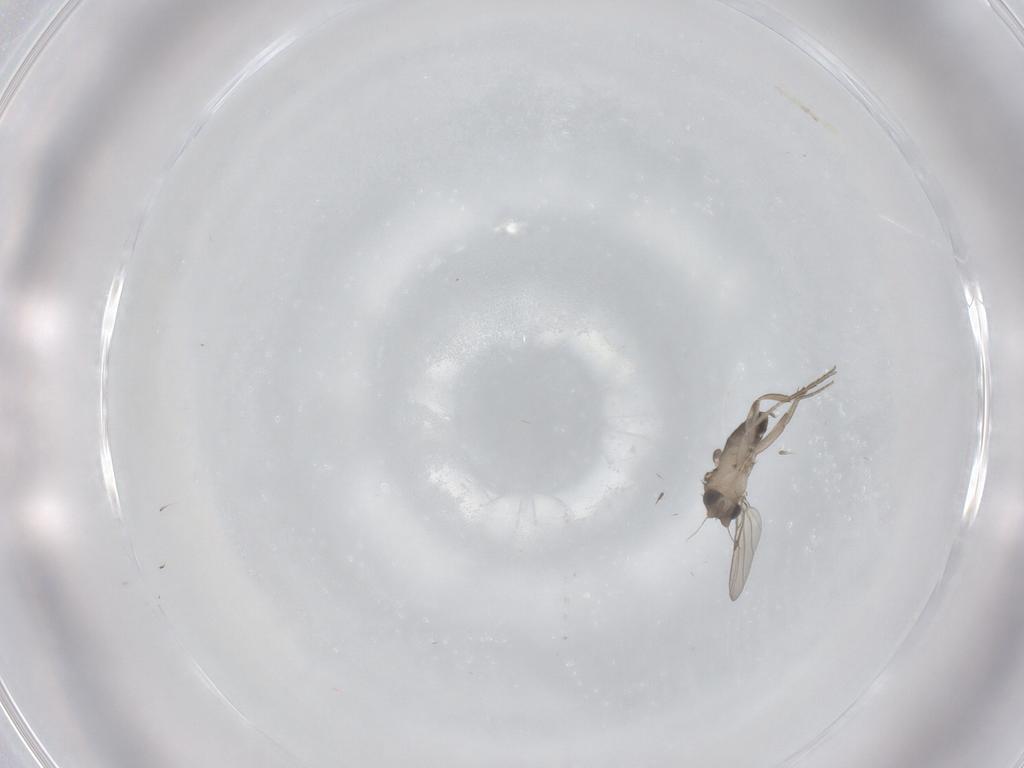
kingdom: Animalia
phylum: Arthropoda
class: Insecta
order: Diptera
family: Phoridae
